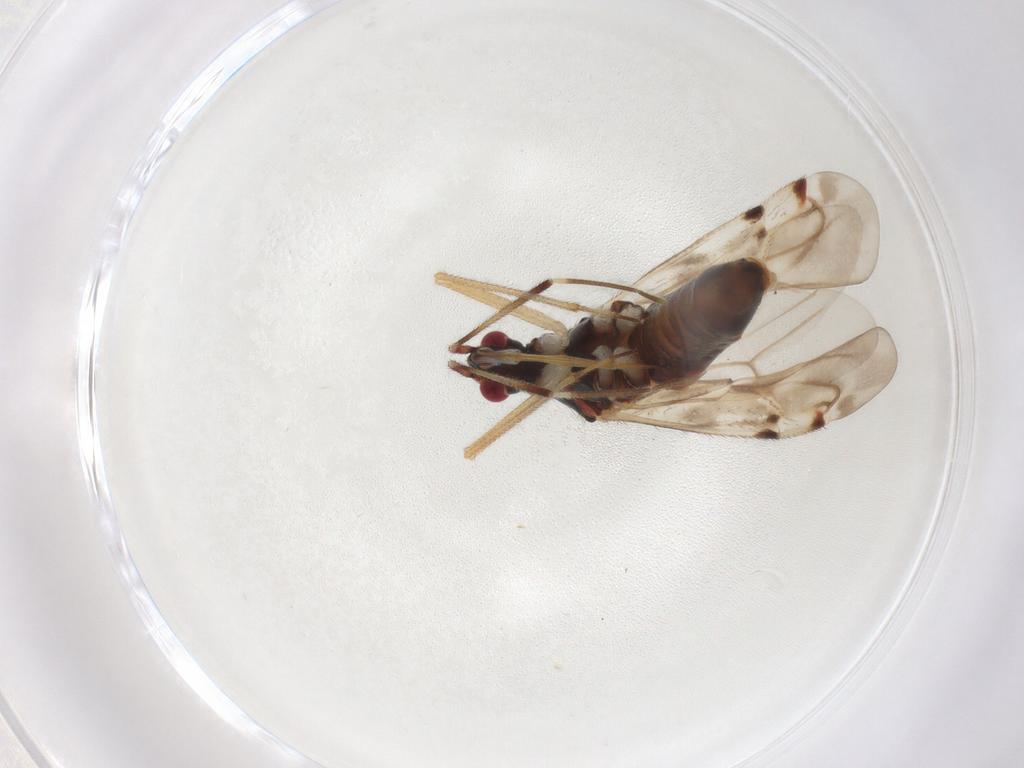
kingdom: Animalia
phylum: Arthropoda
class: Insecta
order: Hemiptera
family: Miridae
